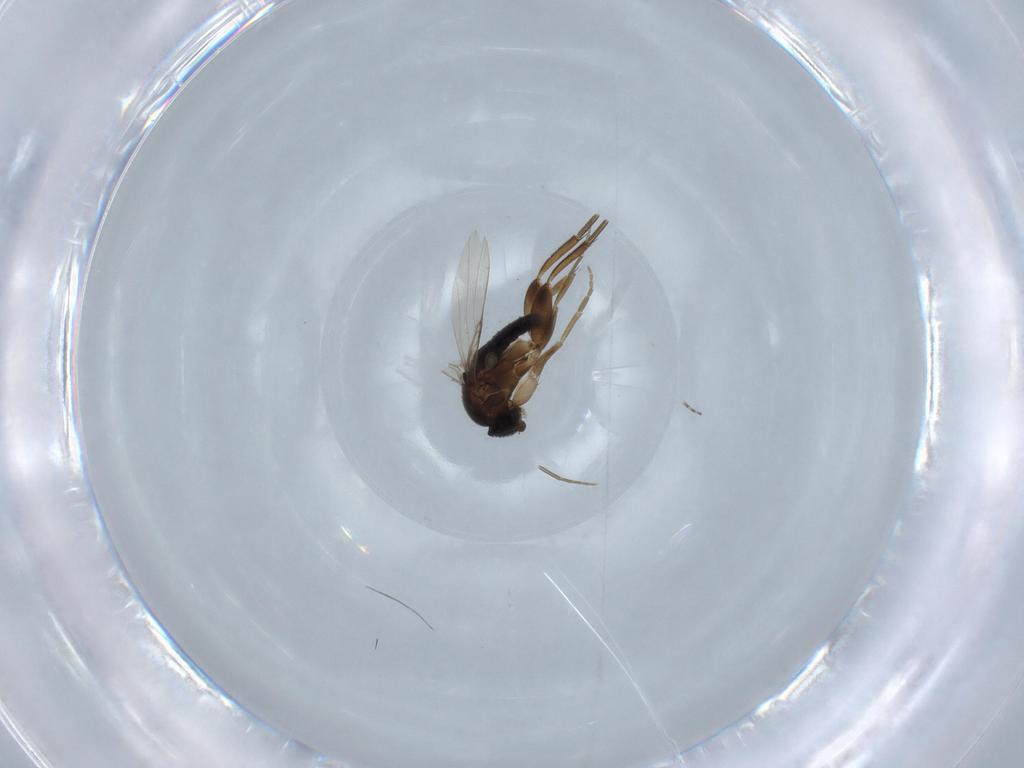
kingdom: Animalia
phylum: Arthropoda
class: Insecta
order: Diptera
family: Phoridae
